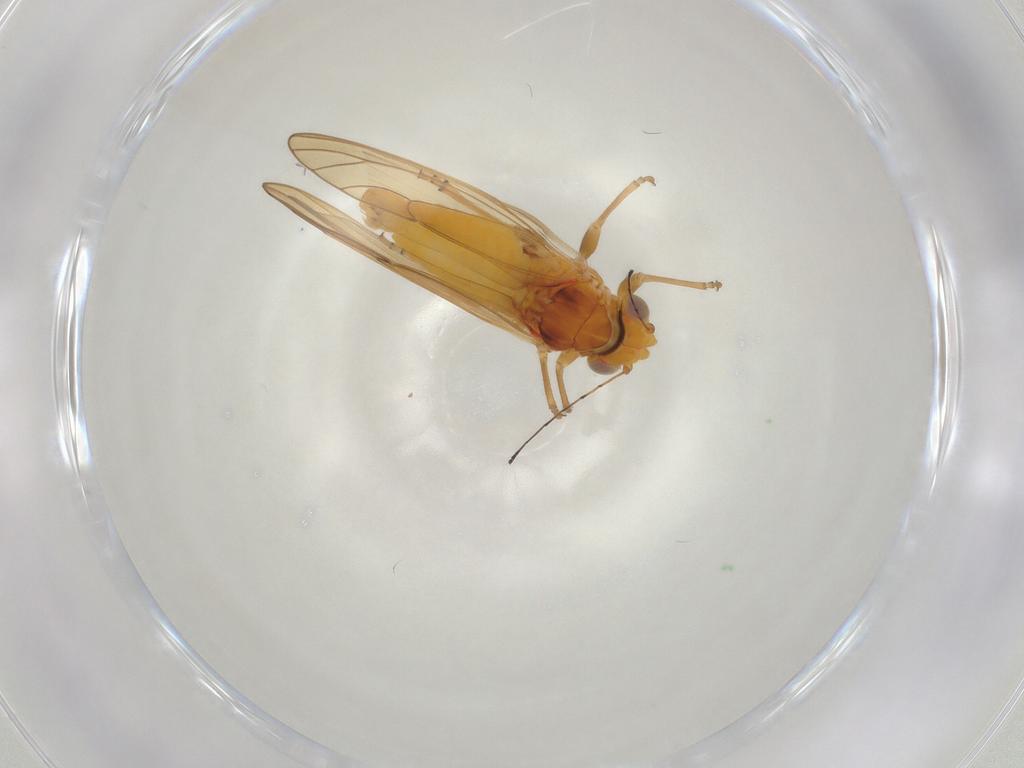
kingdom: Animalia
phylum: Arthropoda
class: Insecta
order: Hemiptera
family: Psylloidea_incertae_sedis
